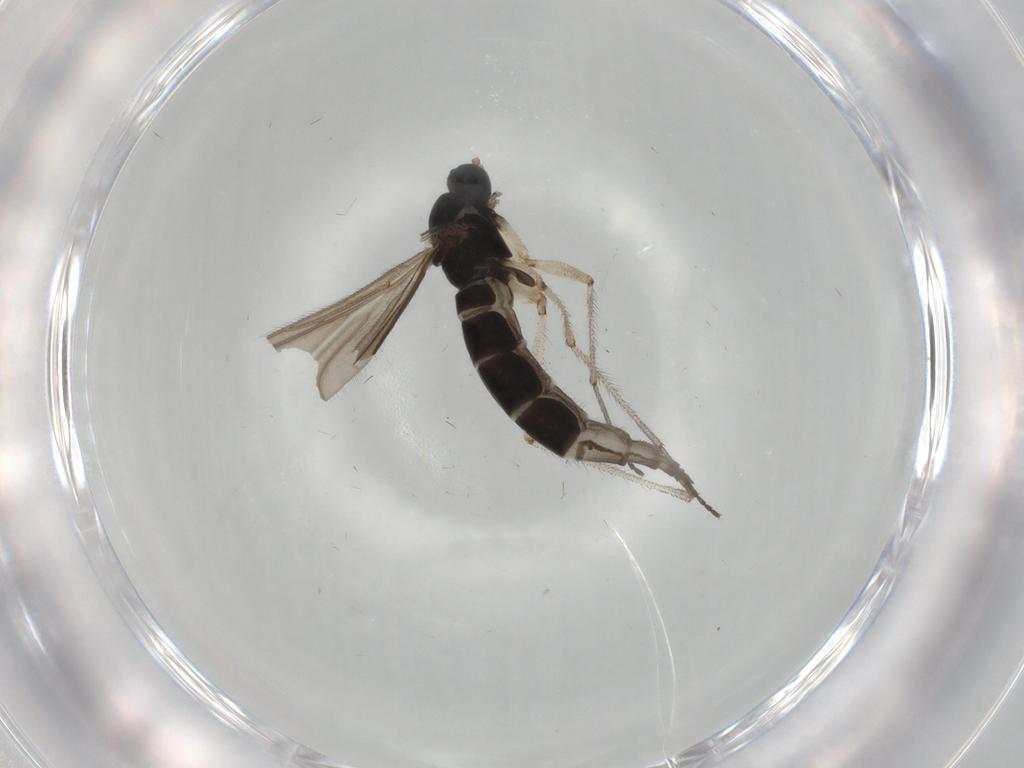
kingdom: Animalia
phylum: Arthropoda
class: Insecta
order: Diptera
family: Sciaridae
